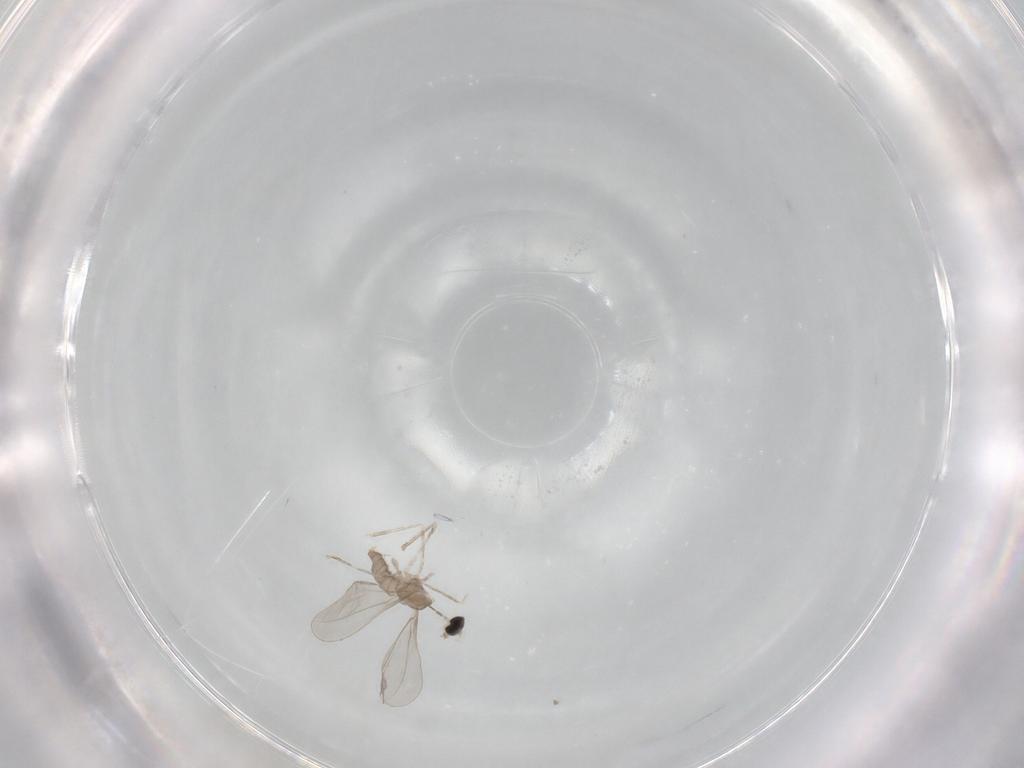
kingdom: Animalia
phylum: Arthropoda
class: Insecta
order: Diptera
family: Cecidomyiidae
